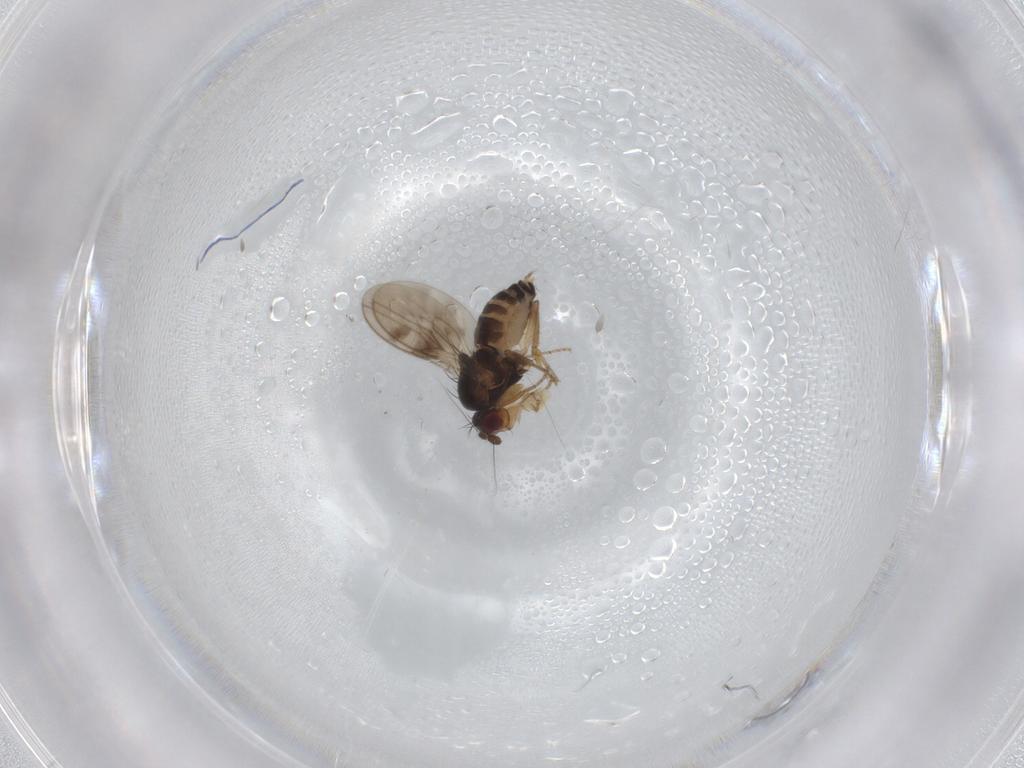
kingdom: Animalia
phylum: Arthropoda
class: Insecta
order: Diptera
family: Sphaeroceridae
